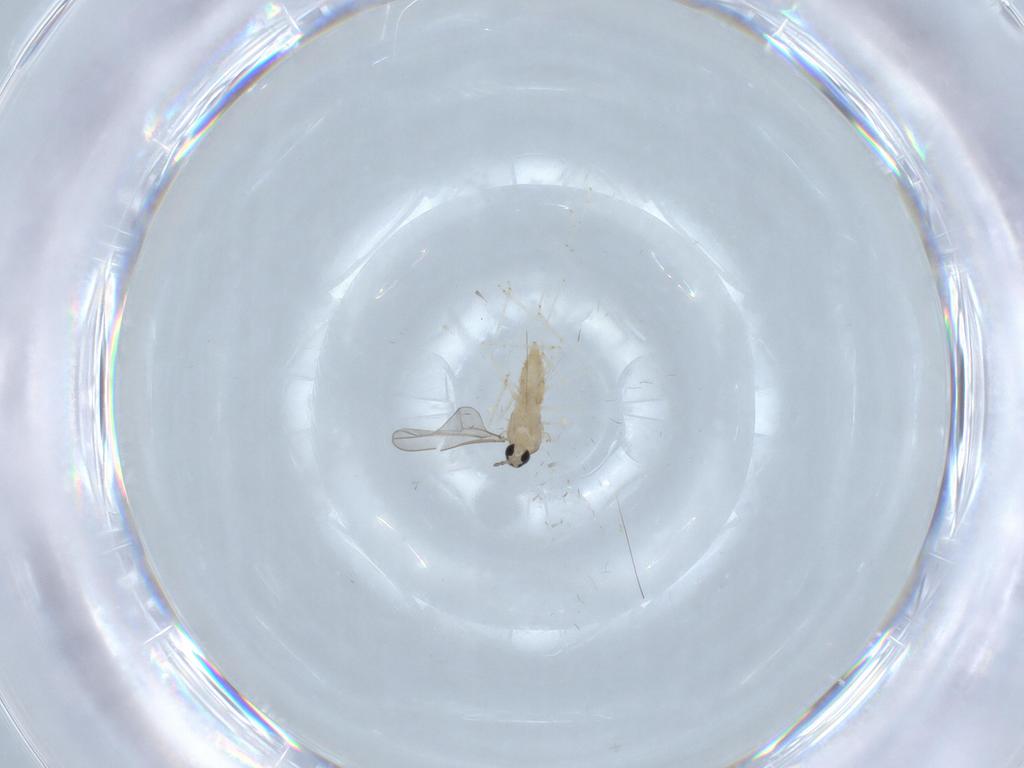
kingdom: Animalia
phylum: Arthropoda
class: Insecta
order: Diptera
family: Cecidomyiidae
